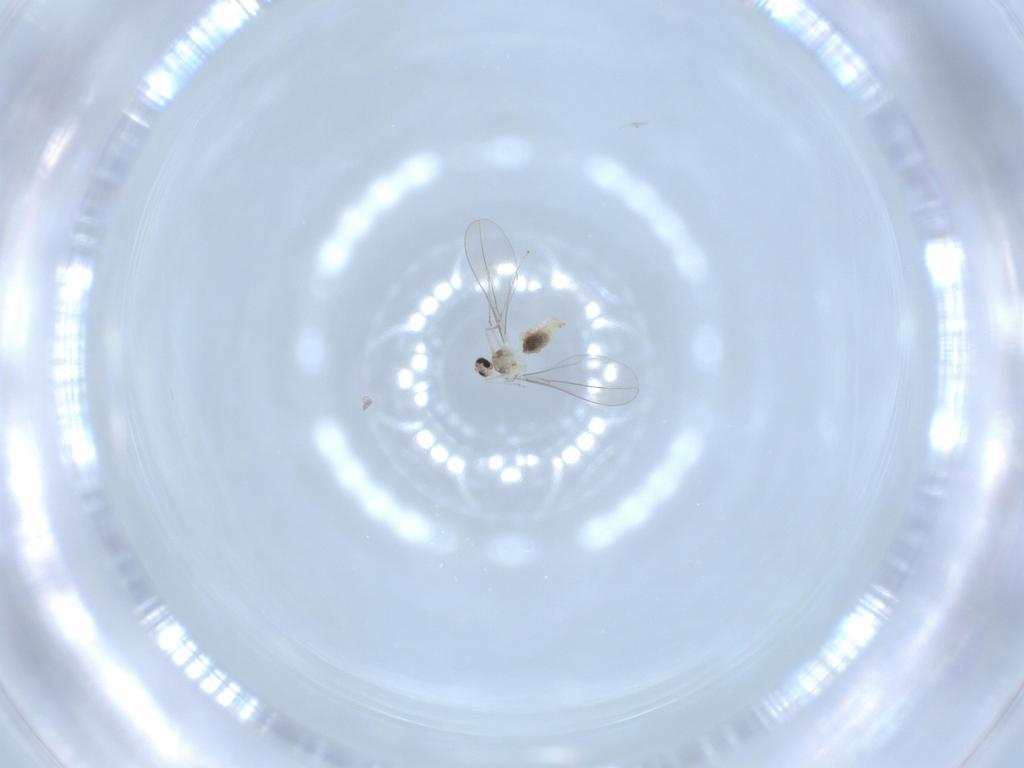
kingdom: Animalia
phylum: Arthropoda
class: Insecta
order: Diptera
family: Cecidomyiidae
